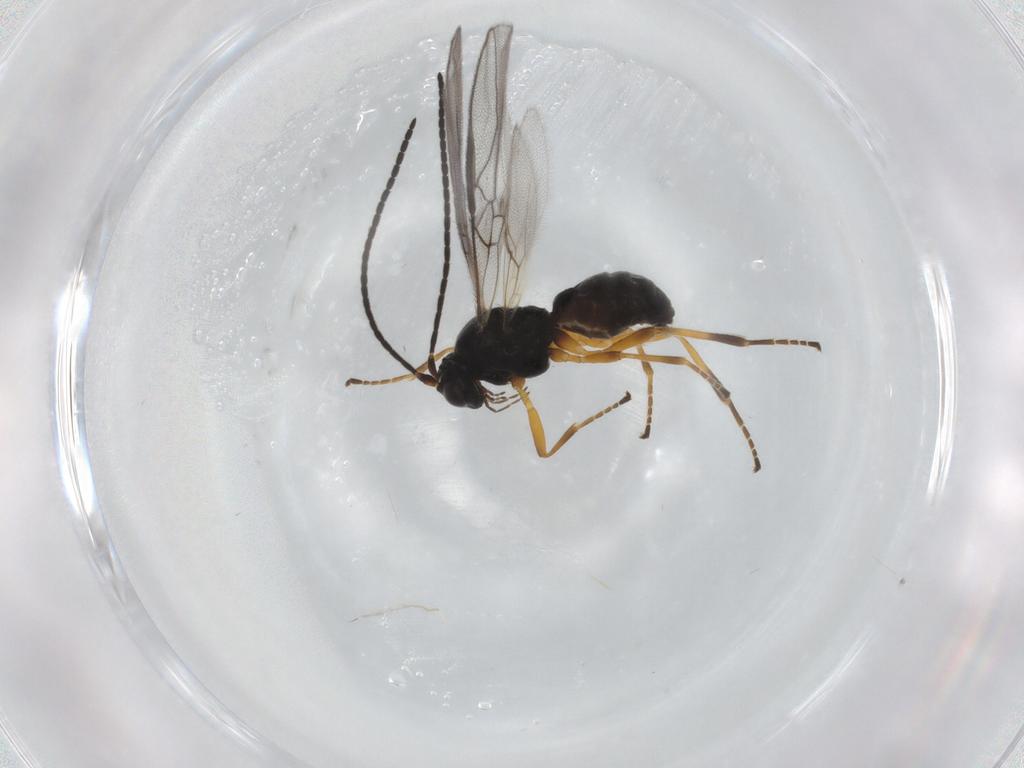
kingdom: Animalia
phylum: Arthropoda
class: Insecta
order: Hymenoptera
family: Braconidae
